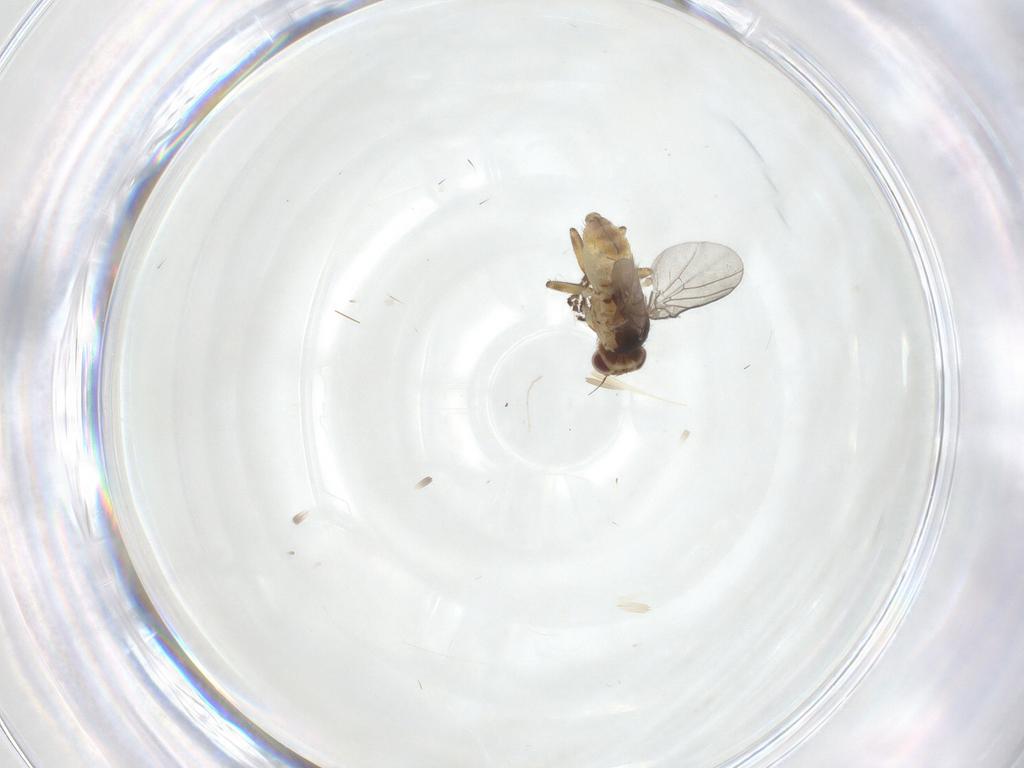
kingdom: Animalia
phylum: Arthropoda
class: Insecta
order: Diptera
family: Agromyzidae
